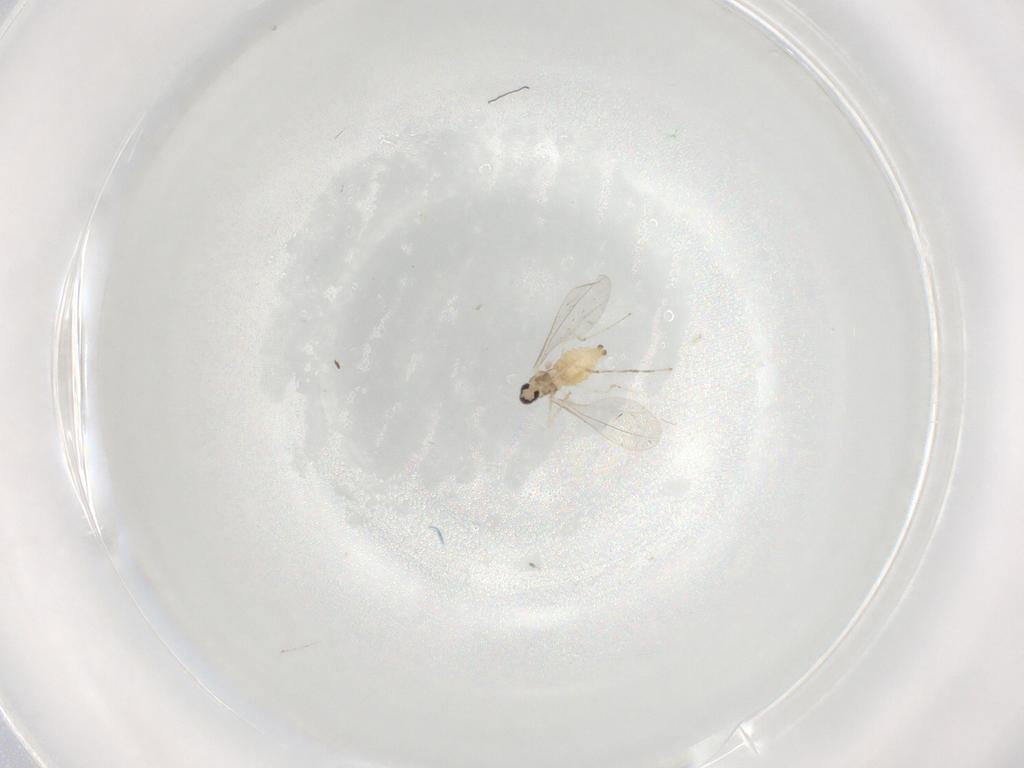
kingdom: Animalia
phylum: Arthropoda
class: Insecta
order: Diptera
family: Cecidomyiidae
